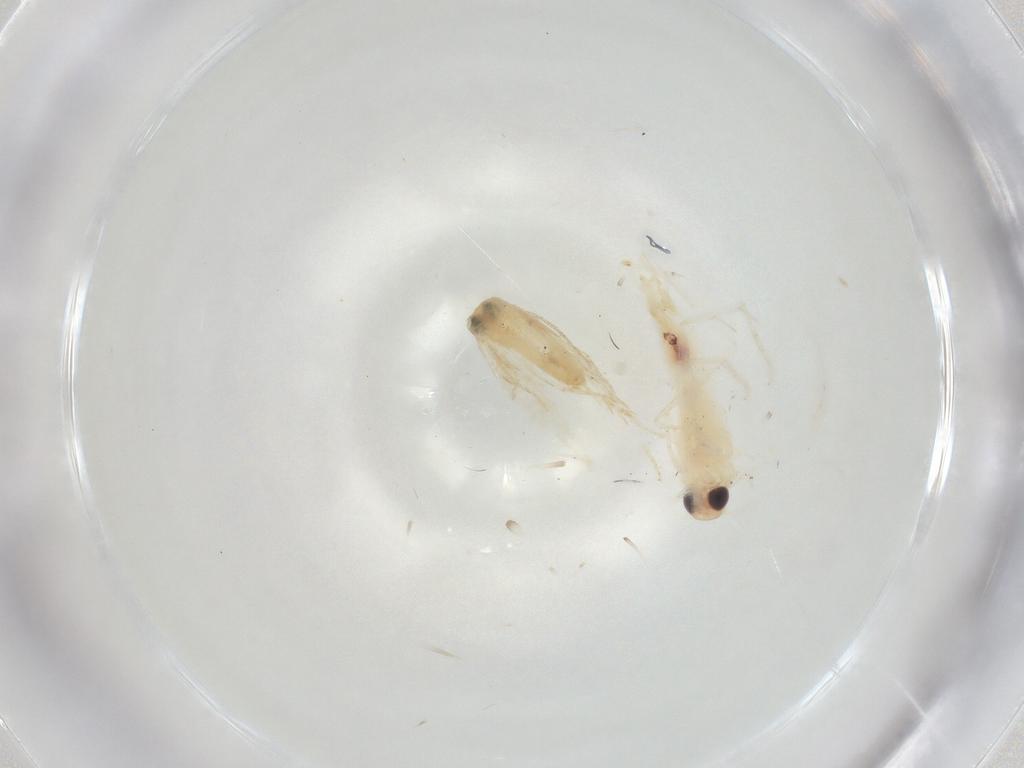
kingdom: Animalia
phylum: Arthropoda
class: Insecta
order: Lepidoptera
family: Nepticulidae
